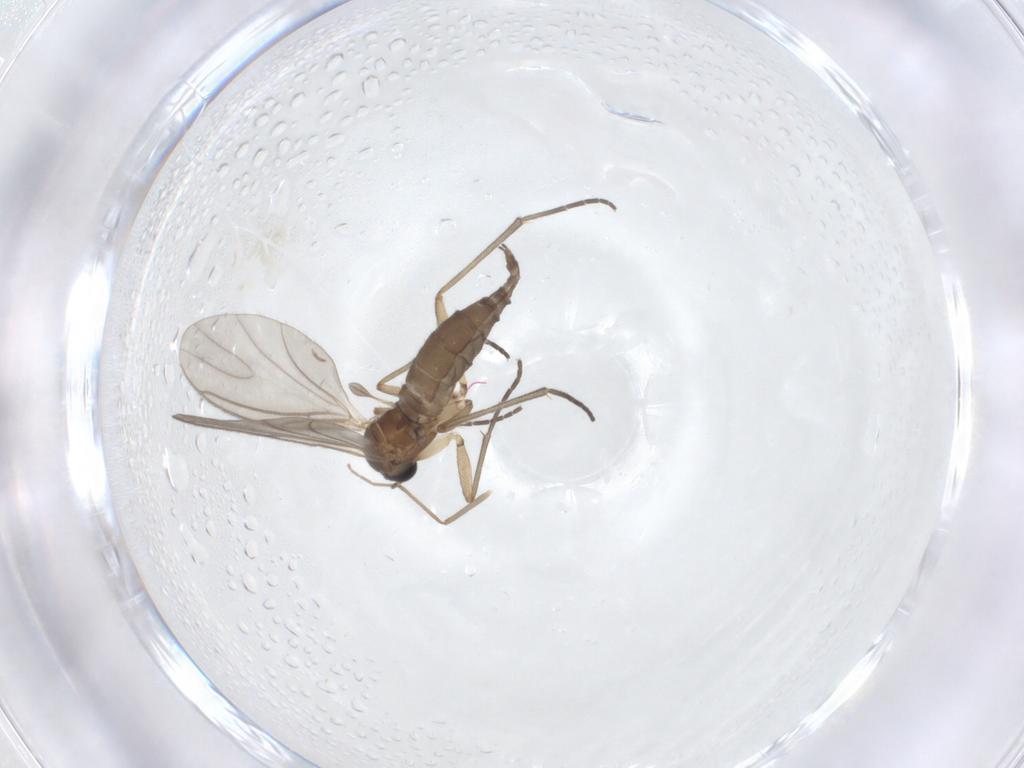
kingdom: Animalia
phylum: Arthropoda
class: Insecta
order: Diptera
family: Sciaridae
